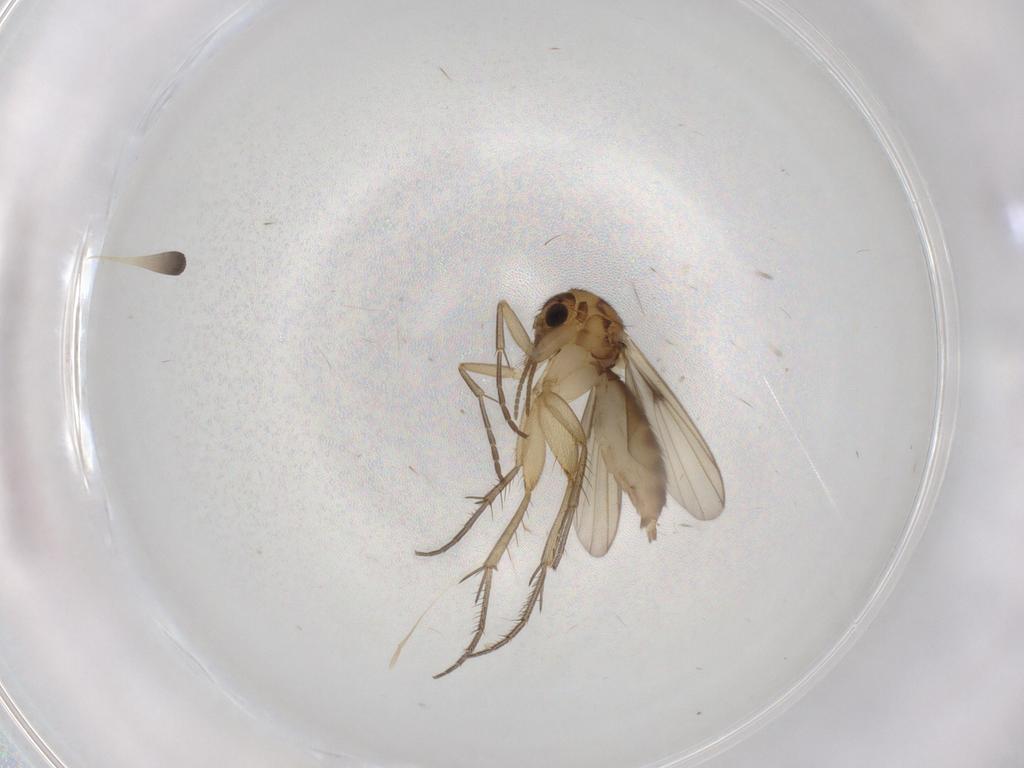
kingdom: Animalia
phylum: Arthropoda
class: Insecta
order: Diptera
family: Mycetophilidae
